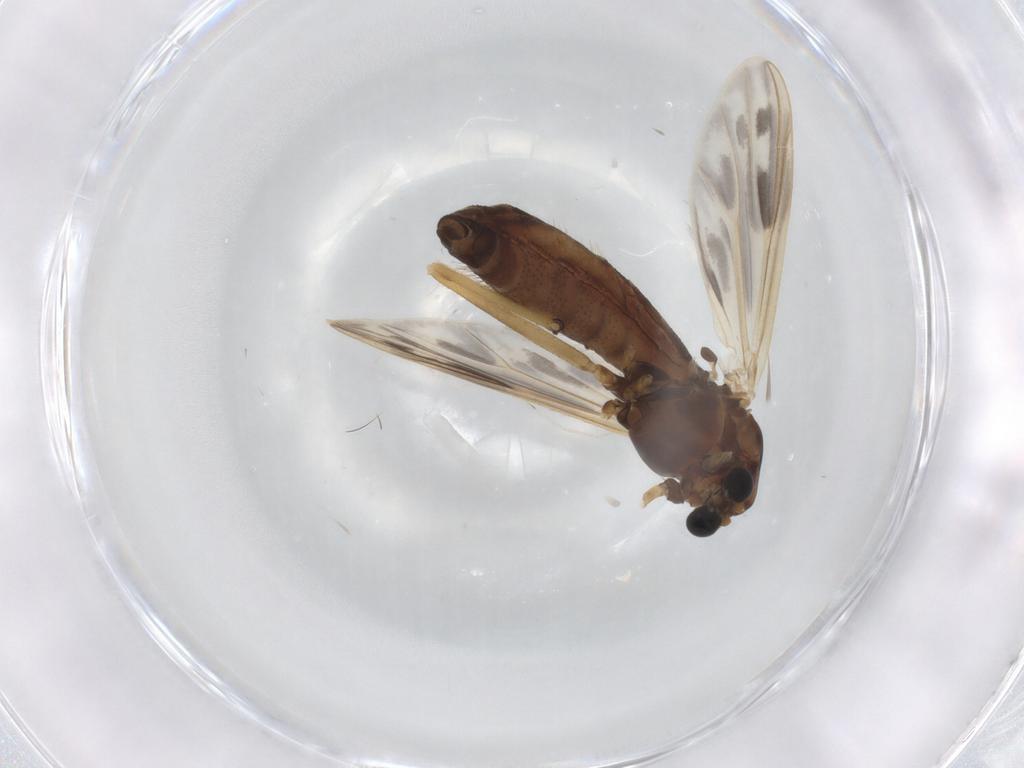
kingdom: Animalia
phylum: Arthropoda
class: Insecta
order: Diptera
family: Chironomidae
